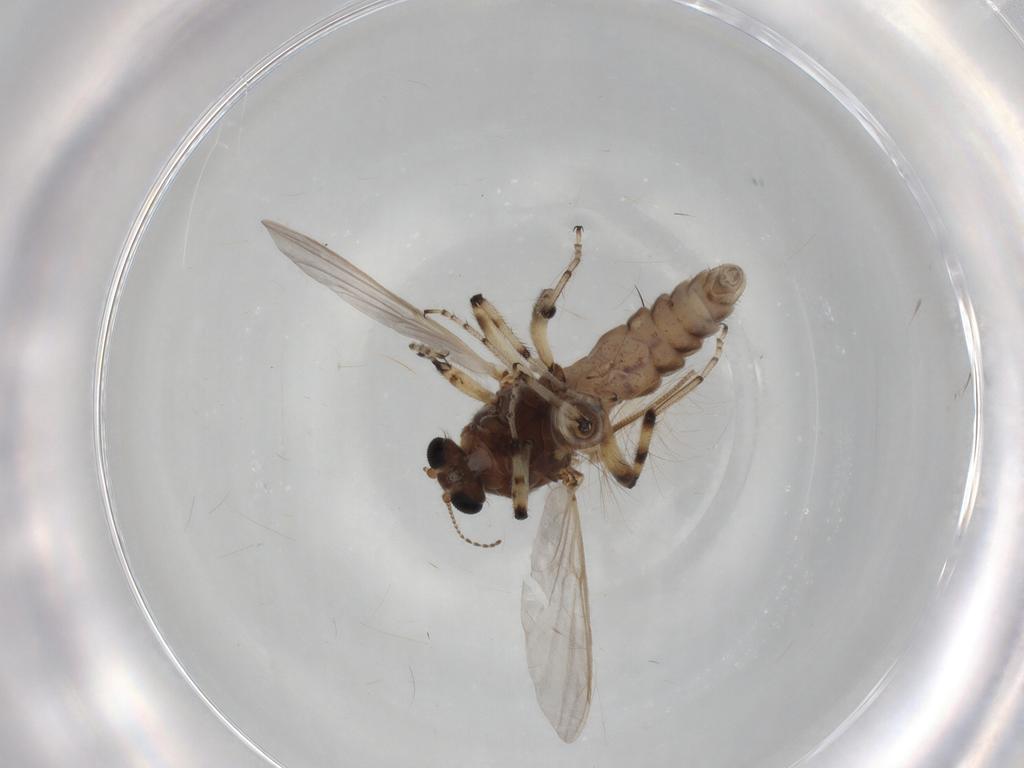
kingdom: Animalia
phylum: Arthropoda
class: Insecta
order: Diptera
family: Ceratopogonidae
